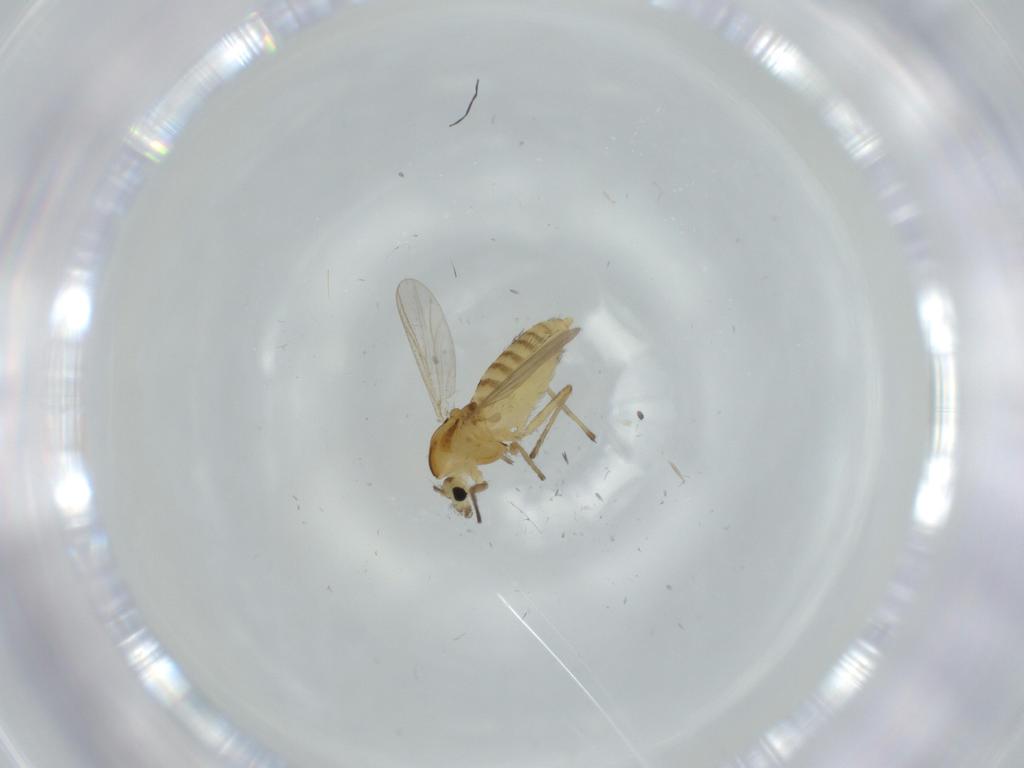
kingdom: Animalia
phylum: Arthropoda
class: Insecta
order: Diptera
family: Chironomidae
